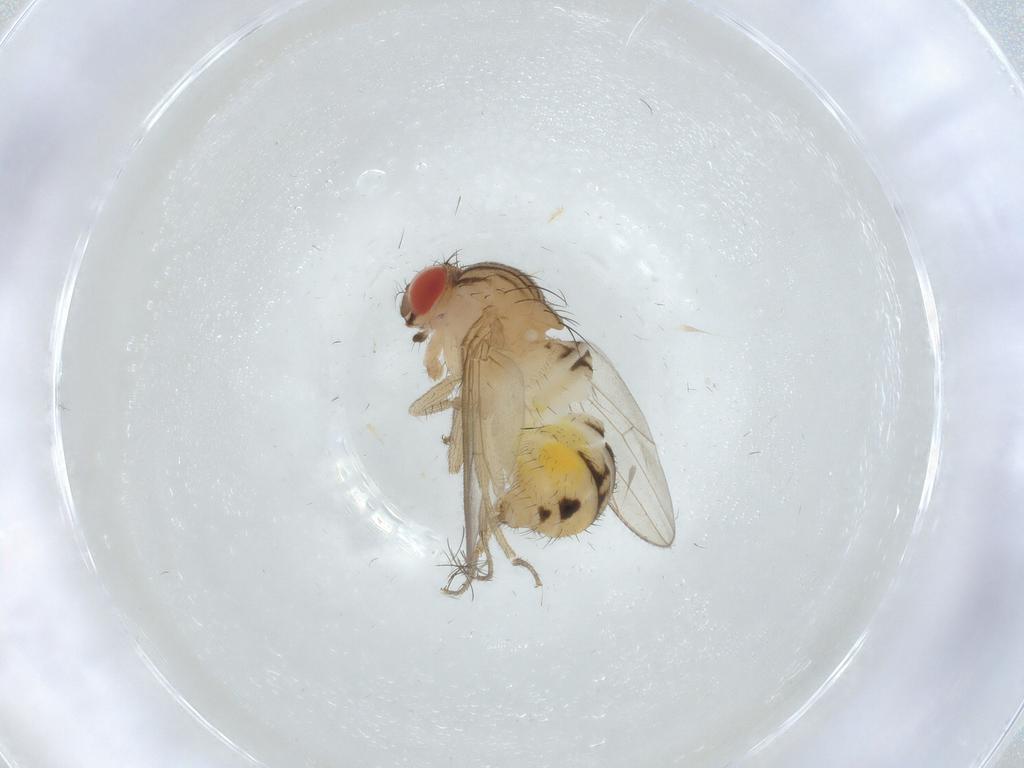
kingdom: Animalia
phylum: Arthropoda
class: Insecta
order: Diptera
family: Drosophilidae
